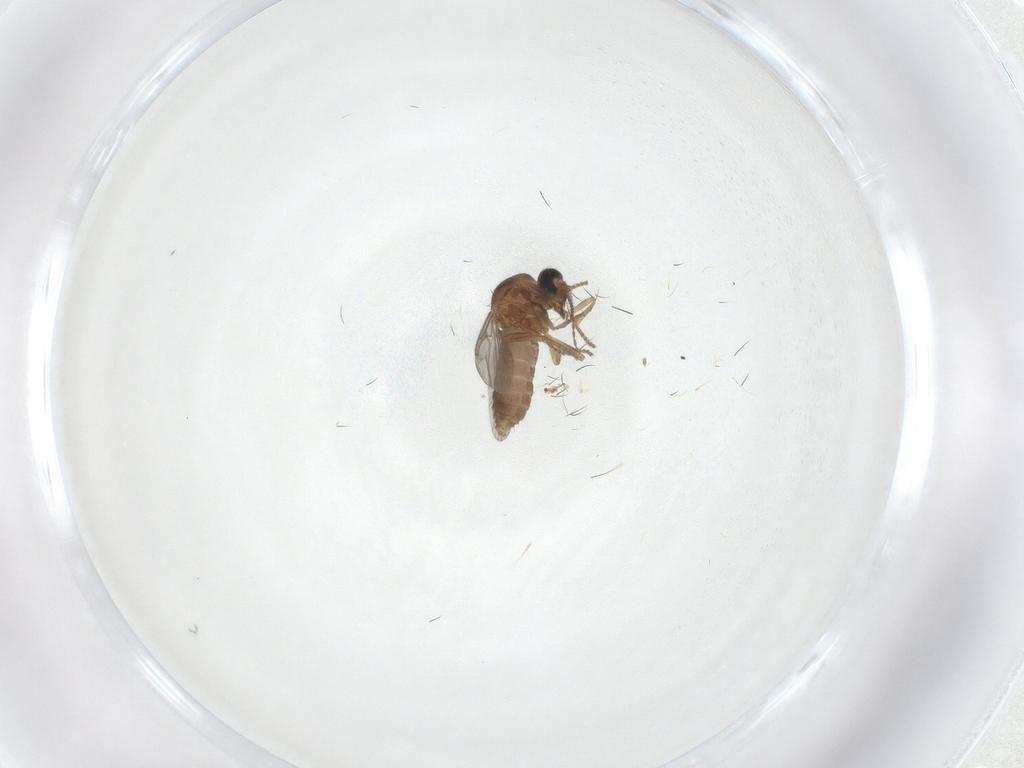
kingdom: Animalia
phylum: Arthropoda
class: Insecta
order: Diptera
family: Ceratopogonidae
